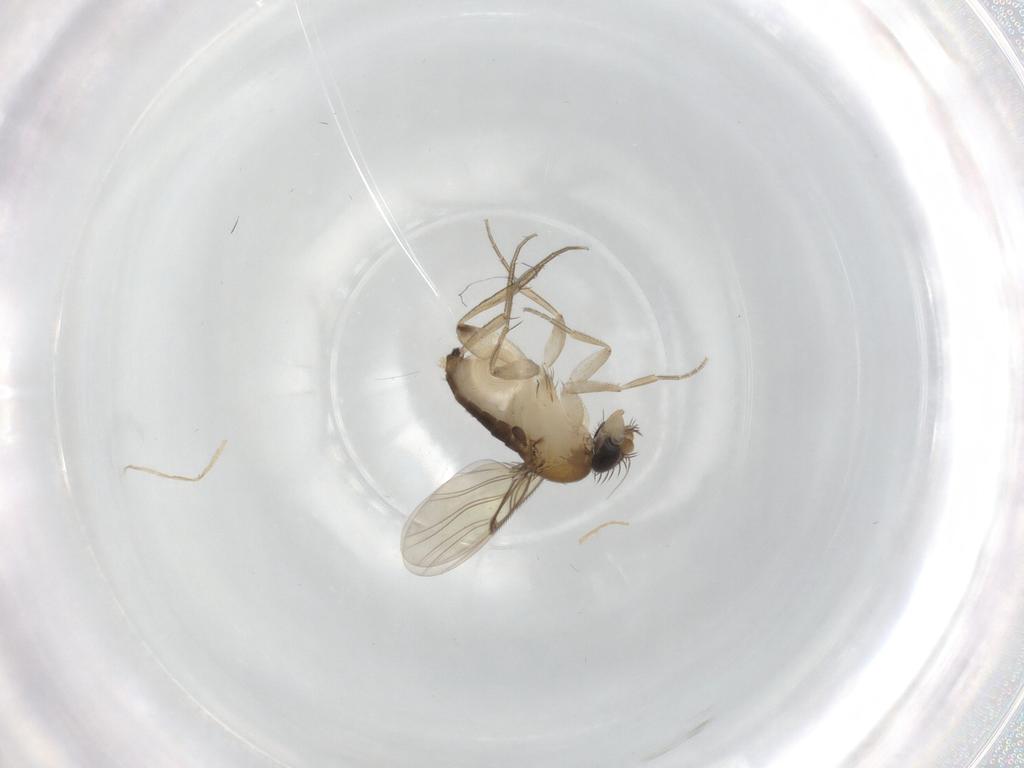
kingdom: Animalia
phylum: Arthropoda
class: Insecta
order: Diptera
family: Phoridae
